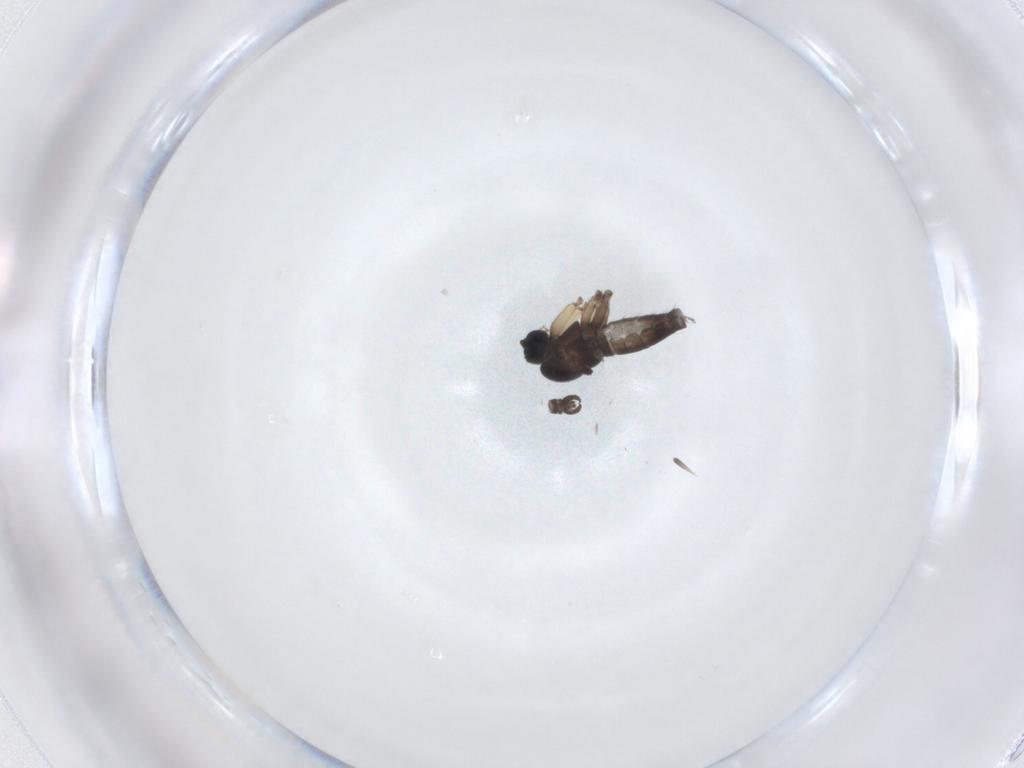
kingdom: Animalia
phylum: Arthropoda
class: Insecta
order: Diptera
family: Sciaridae
